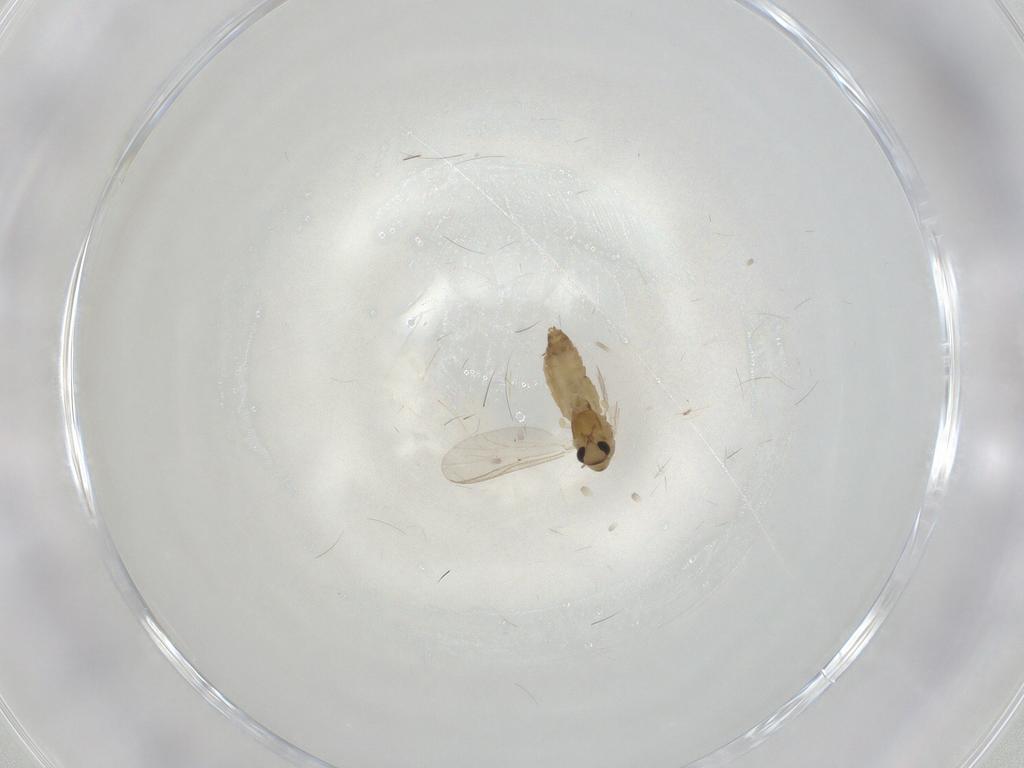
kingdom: Animalia
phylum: Arthropoda
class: Insecta
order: Diptera
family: Chironomidae
